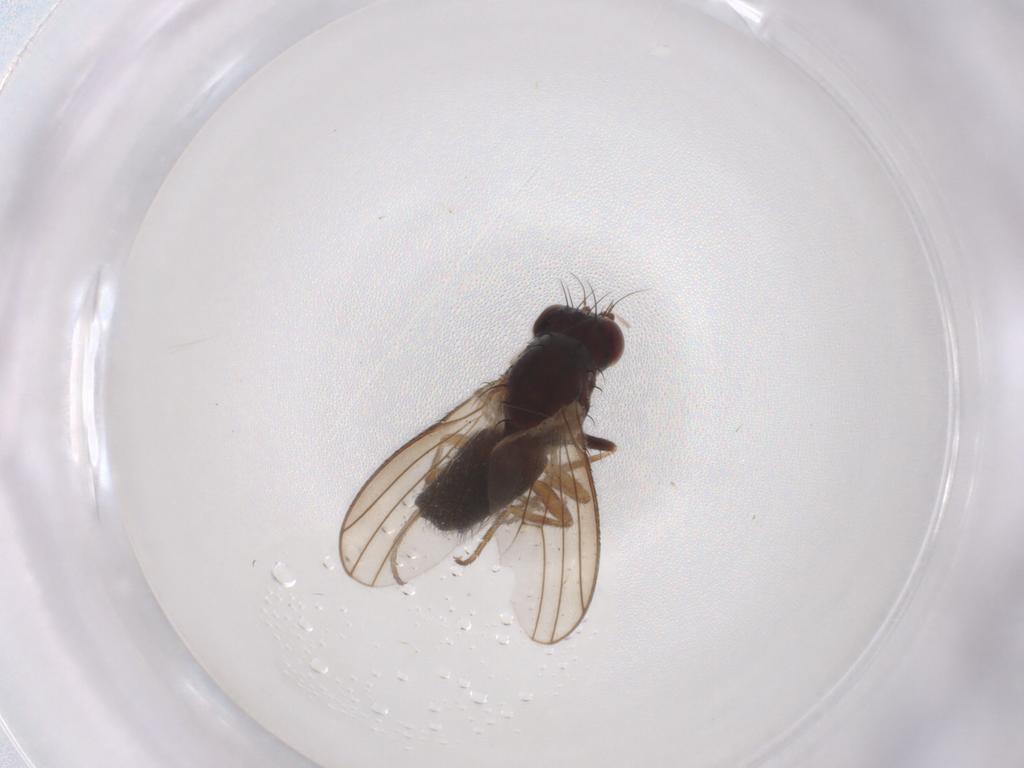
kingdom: Animalia
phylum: Arthropoda
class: Insecta
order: Diptera
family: Heleomyzidae
